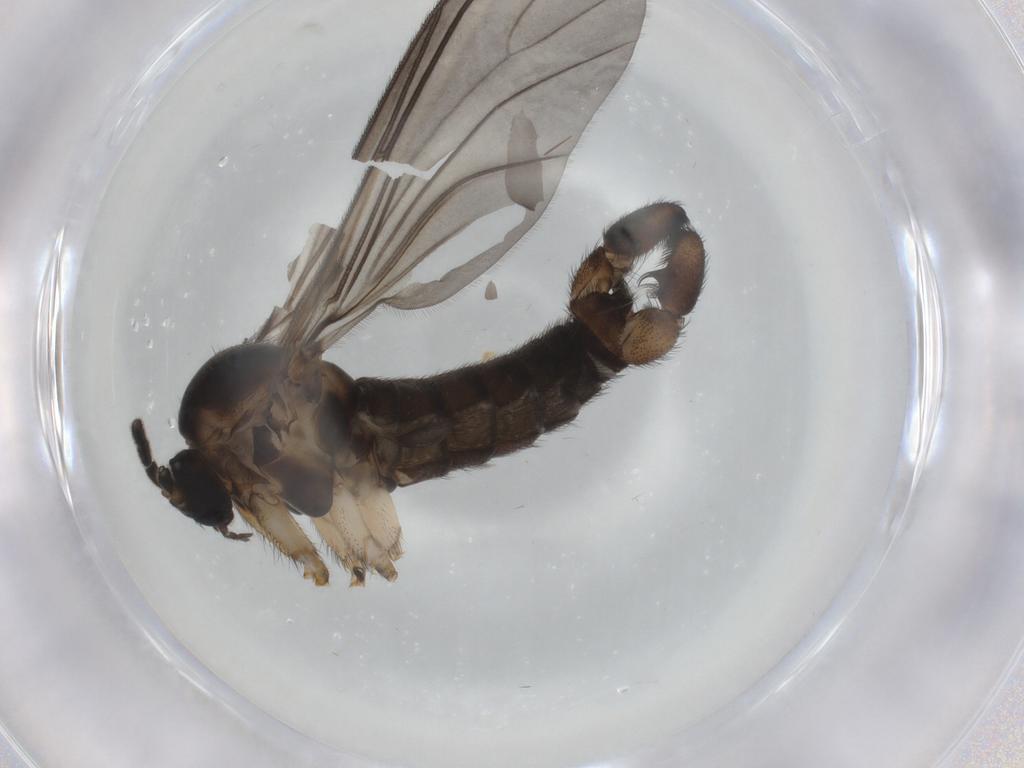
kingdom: Animalia
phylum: Arthropoda
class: Insecta
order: Diptera
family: Sciaridae
